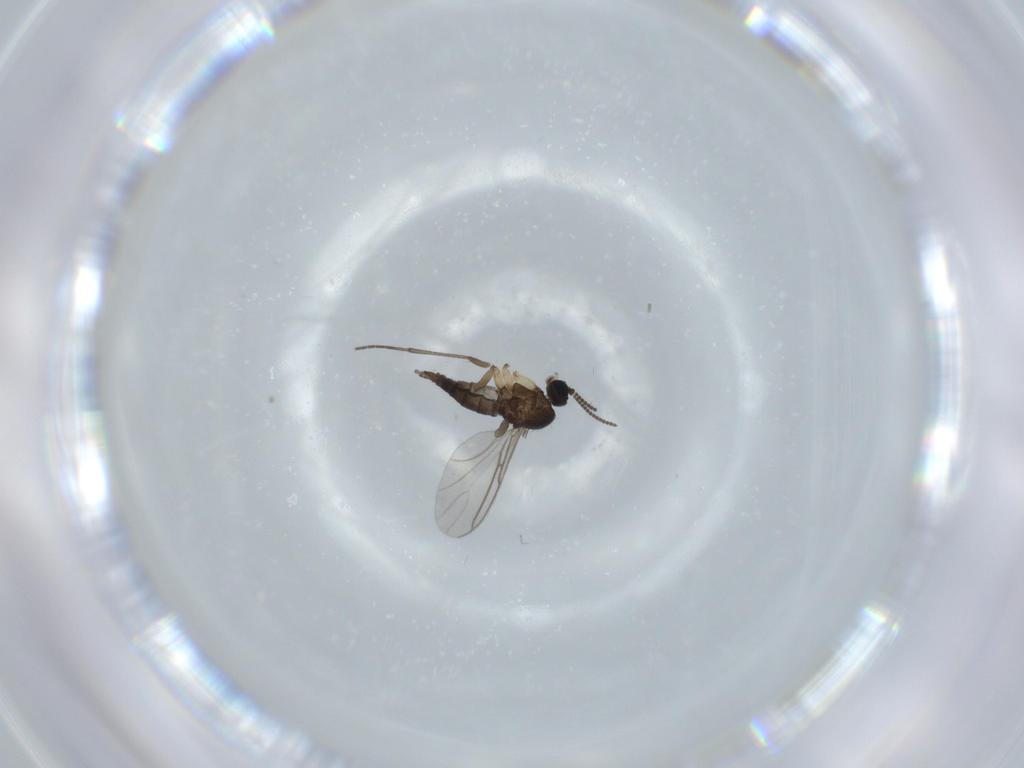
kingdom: Animalia
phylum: Arthropoda
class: Insecta
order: Diptera
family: Sciaridae
